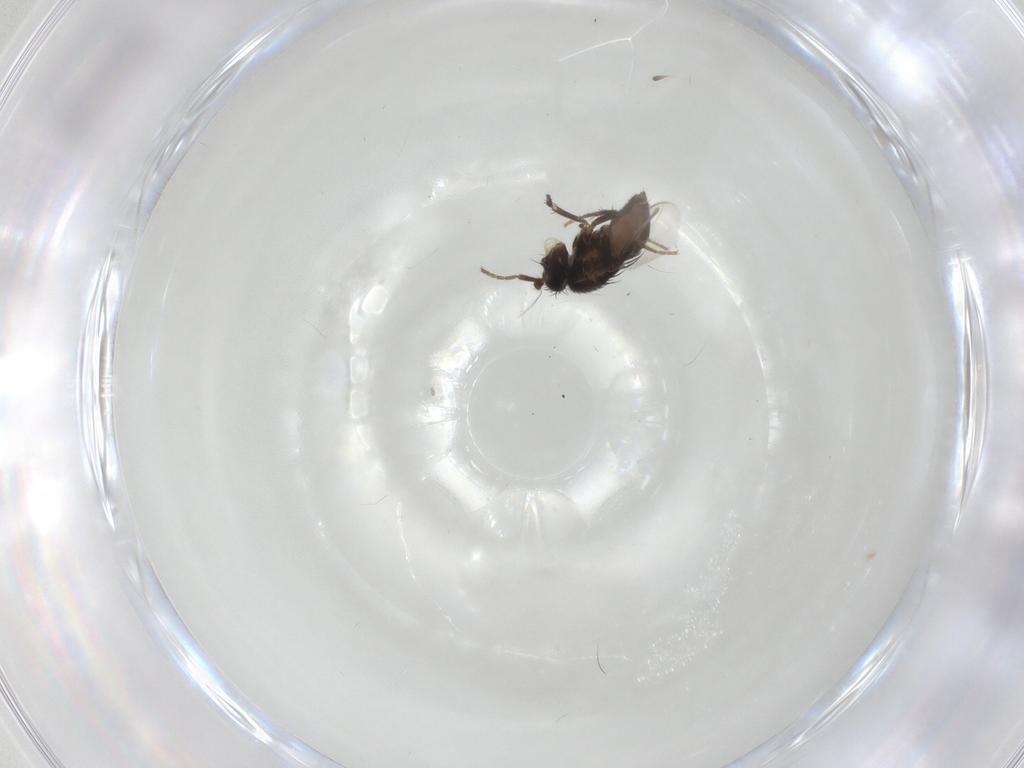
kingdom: Animalia
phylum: Arthropoda
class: Insecta
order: Diptera
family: Sphaeroceridae
